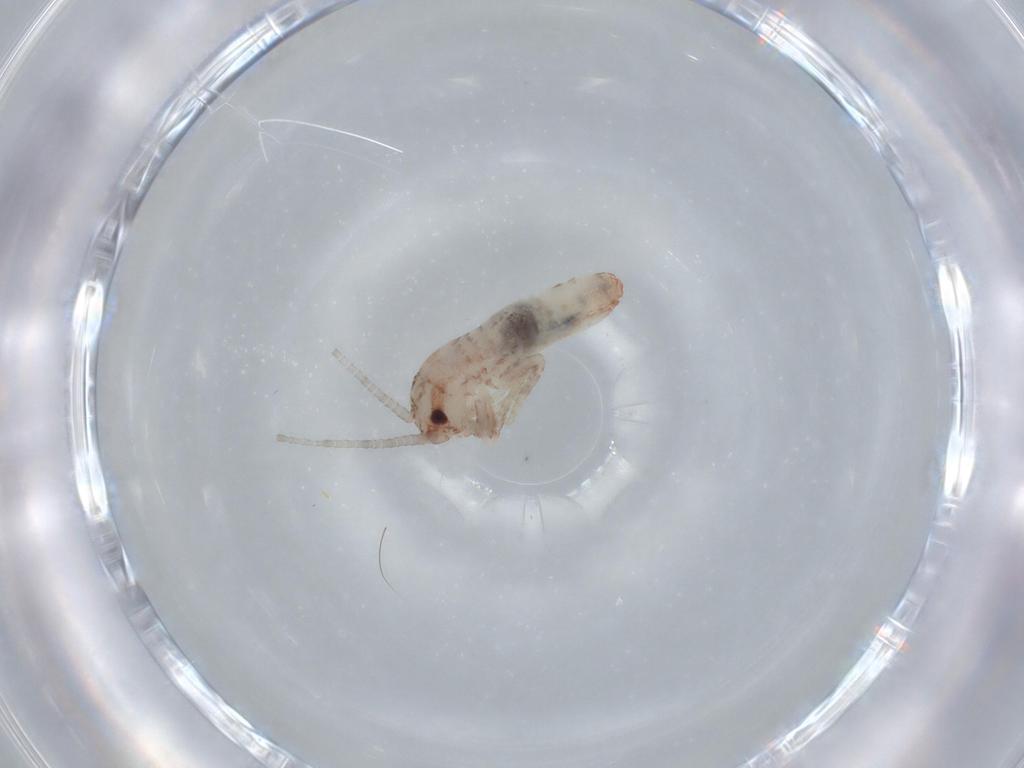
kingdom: Animalia
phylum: Arthropoda
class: Insecta
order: Orthoptera
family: Mogoplistidae
